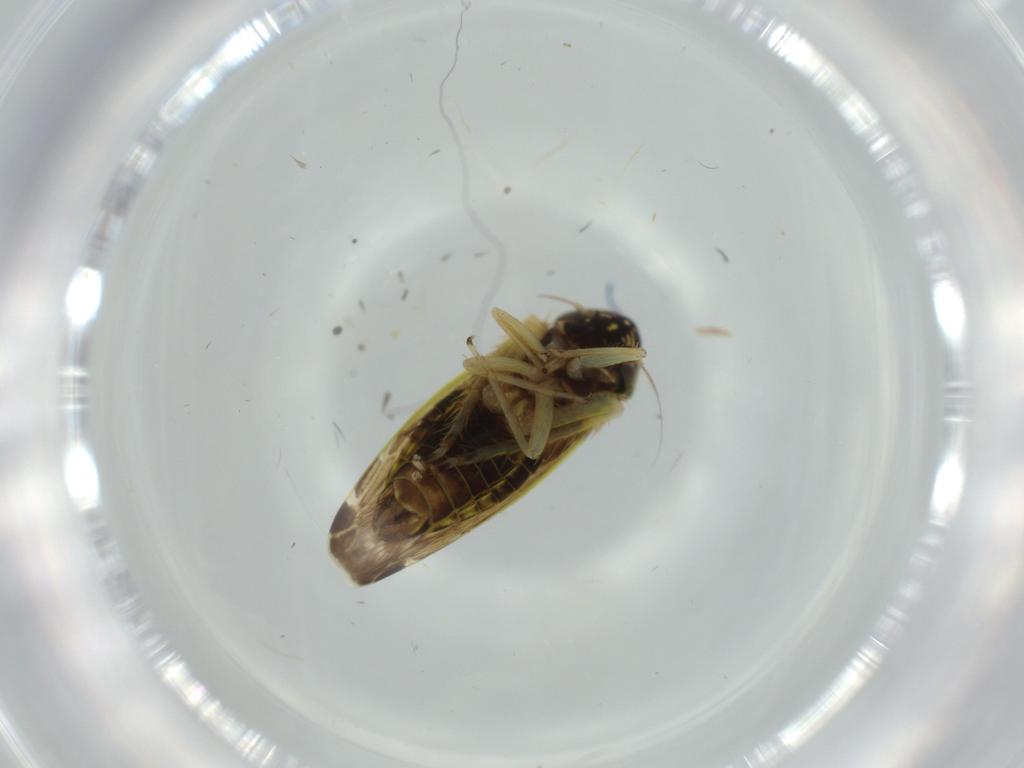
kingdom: Animalia
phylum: Arthropoda
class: Insecta
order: Hemiptera
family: Cicadellidae
